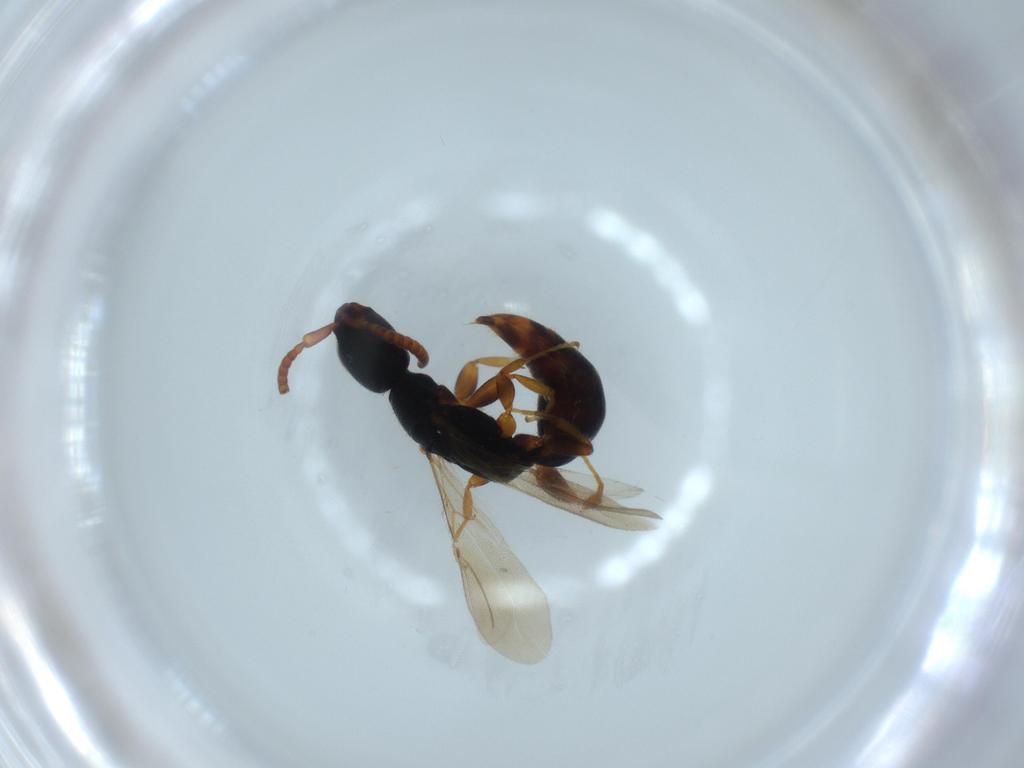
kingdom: Animalia
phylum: Arthropoda
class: Insecta
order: Hymenoptera
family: Bethylidae
